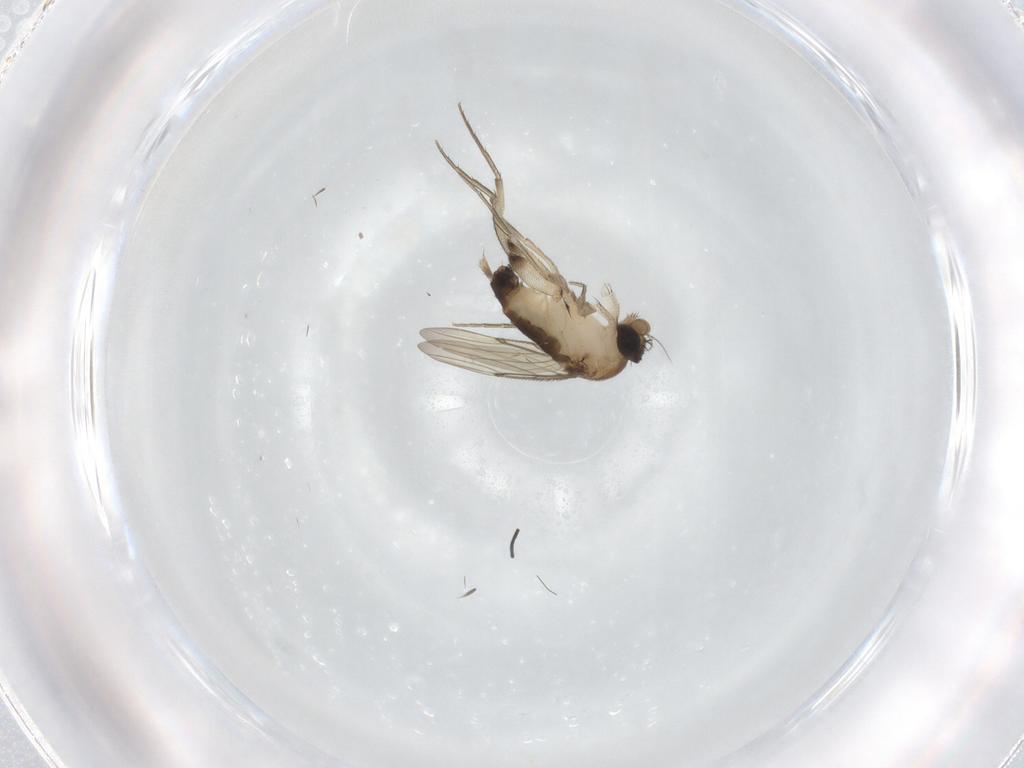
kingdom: Animalia
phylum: Arthropoda
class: Insecta
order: Diptera
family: Phoridae
